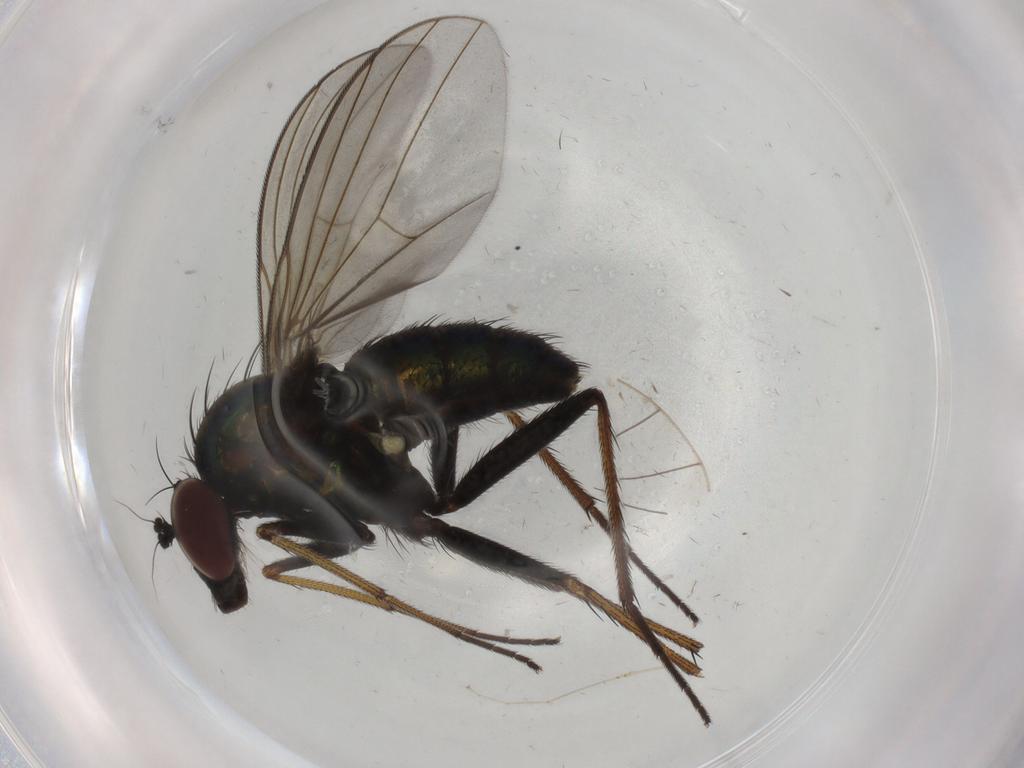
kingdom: Animalia
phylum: Arthropoda
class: Insecta
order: Diptera
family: Dolichopodidae
